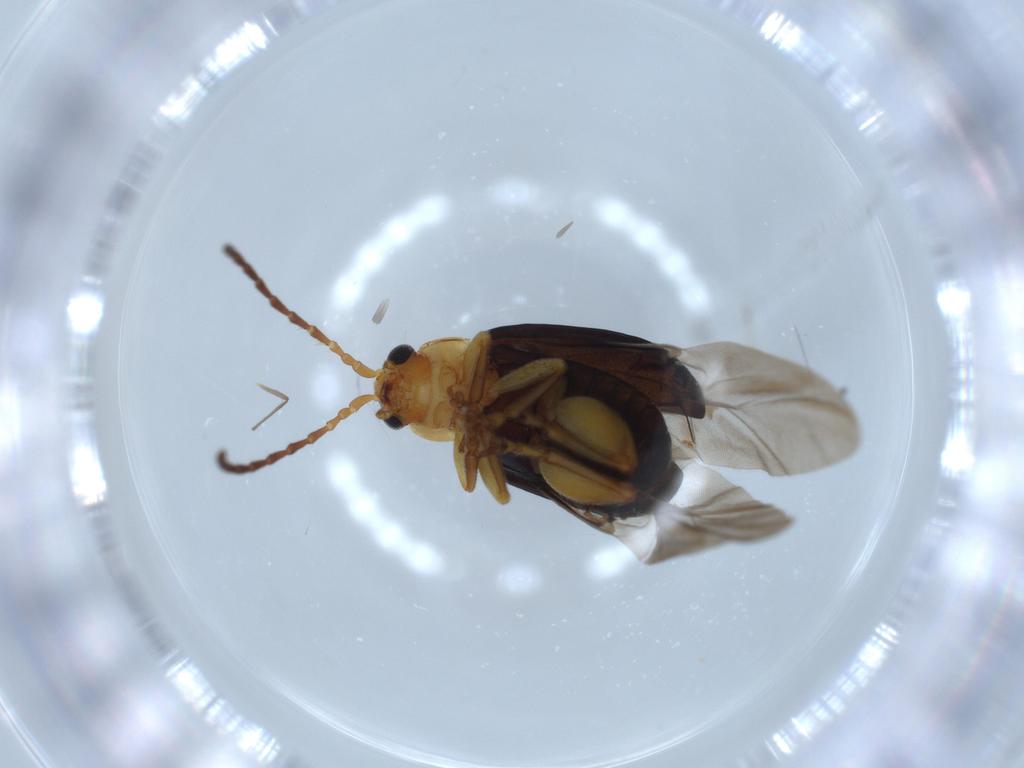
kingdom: Animalia
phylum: Arthropoda
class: Insecta
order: Coleoptera
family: Chrysomelidae
